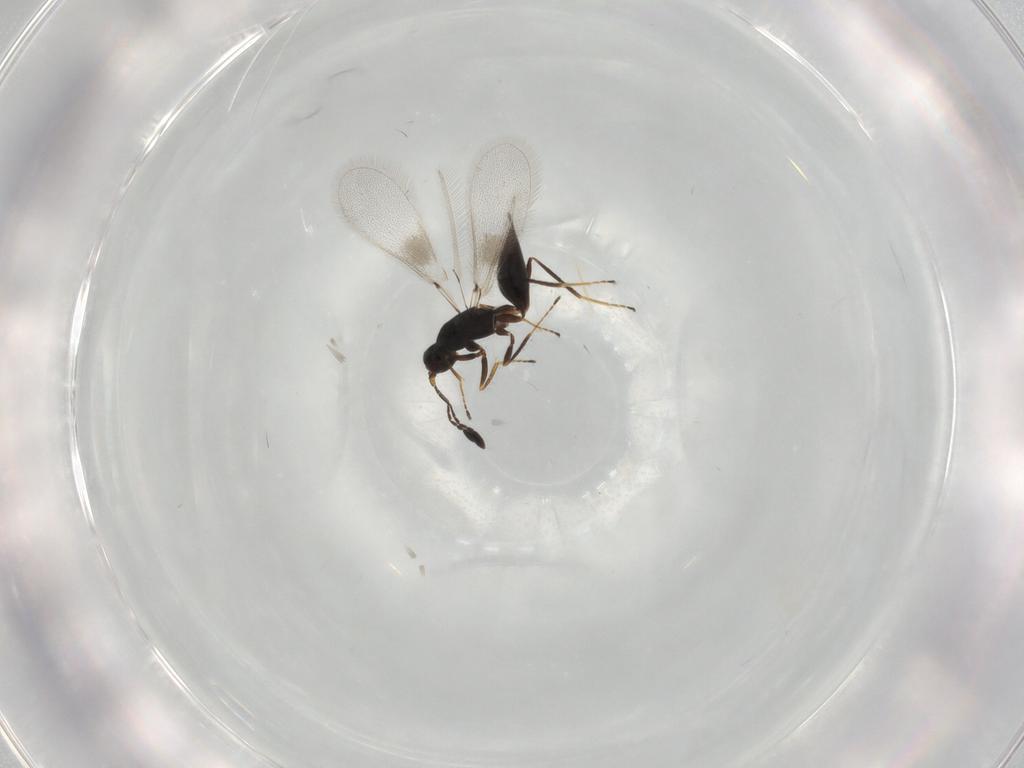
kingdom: Animalia
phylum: Arthropoda
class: Insecta
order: Hymenoptera
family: Mymaridae
